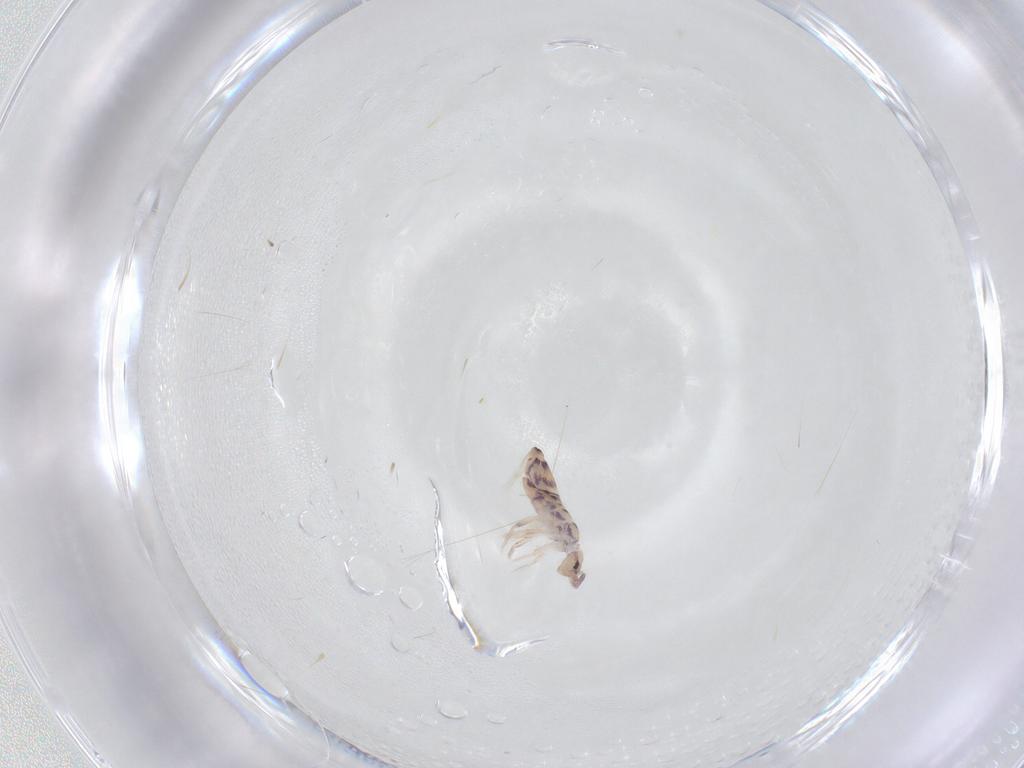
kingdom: Animalia
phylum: Arthropoda
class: Collembola
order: Entomobryomorpha
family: Entomobryidae
